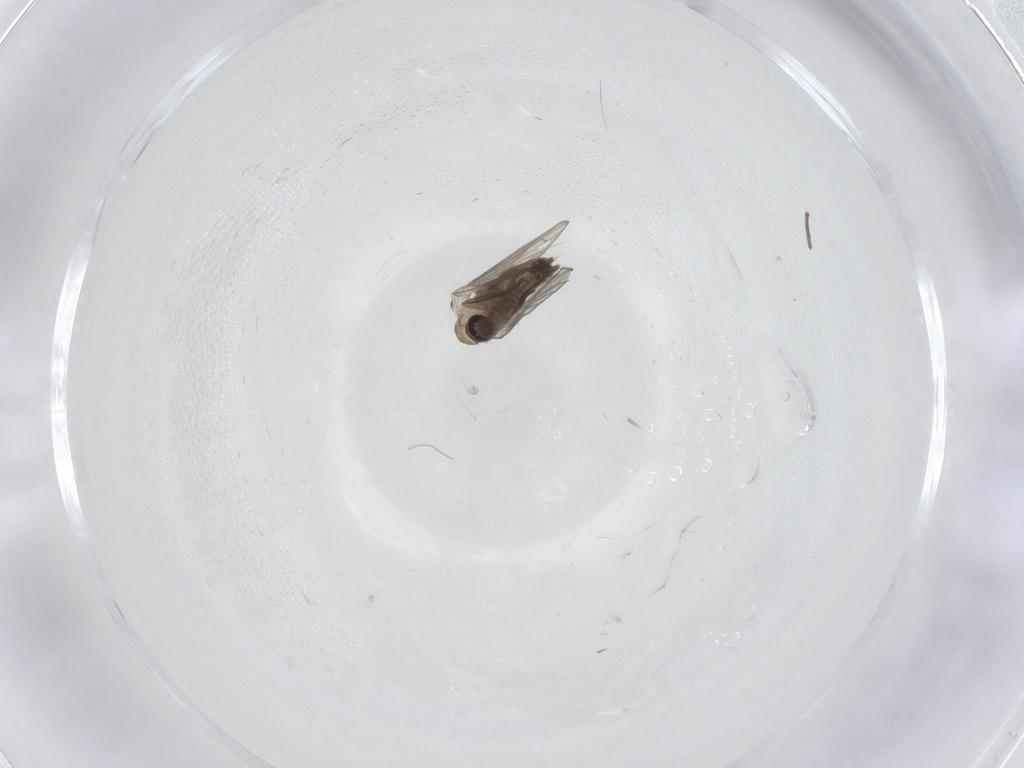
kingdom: Animalia
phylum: Arthropoda
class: Insecta
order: Diptera
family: Psychodidae
